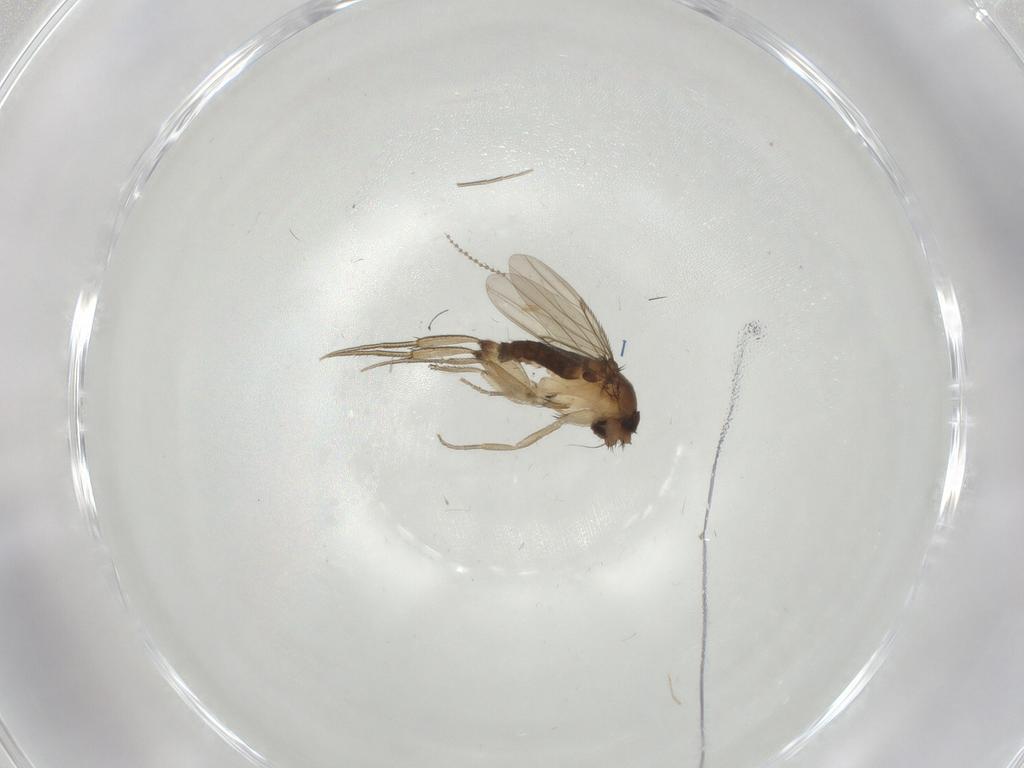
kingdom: Animalia
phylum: Arthropoda
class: Insecta
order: Diptera
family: Cecidomyiidae
